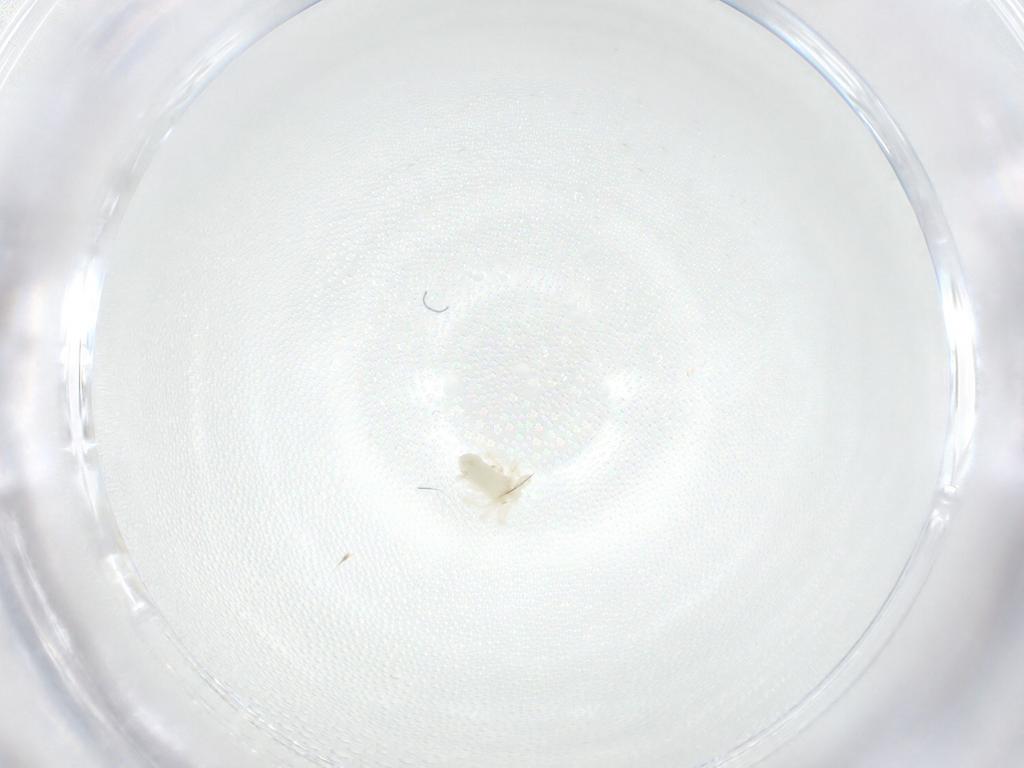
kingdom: Animalia
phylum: Arthropoda
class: Arachnida
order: Trombidiformes
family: Anystidae
